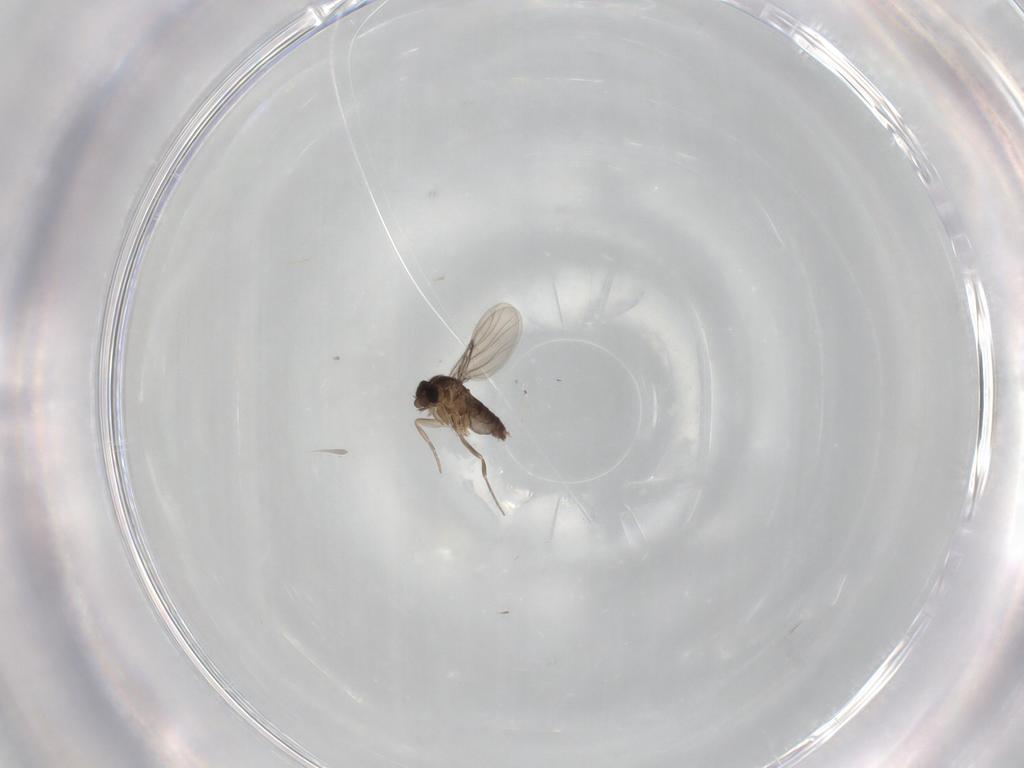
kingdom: Animalia
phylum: Arthropoda
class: Insecta
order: Diptera
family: Phoridae
